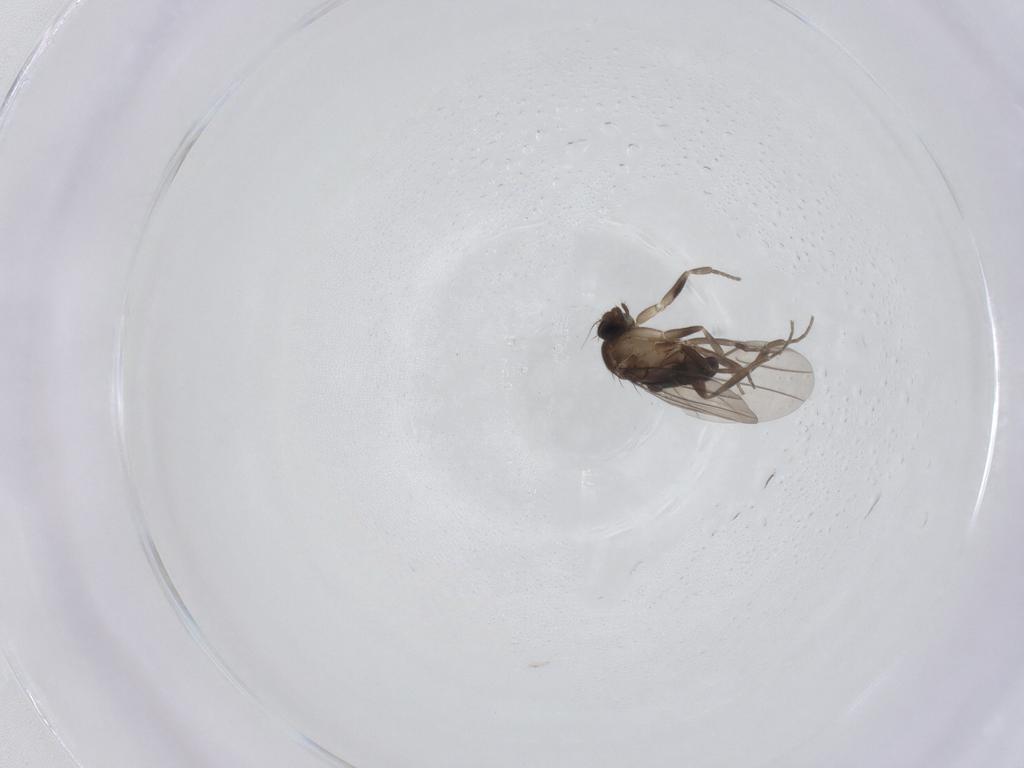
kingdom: Animalia
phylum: Arthropoda
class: Insecta
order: Diptera
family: Phoridae
